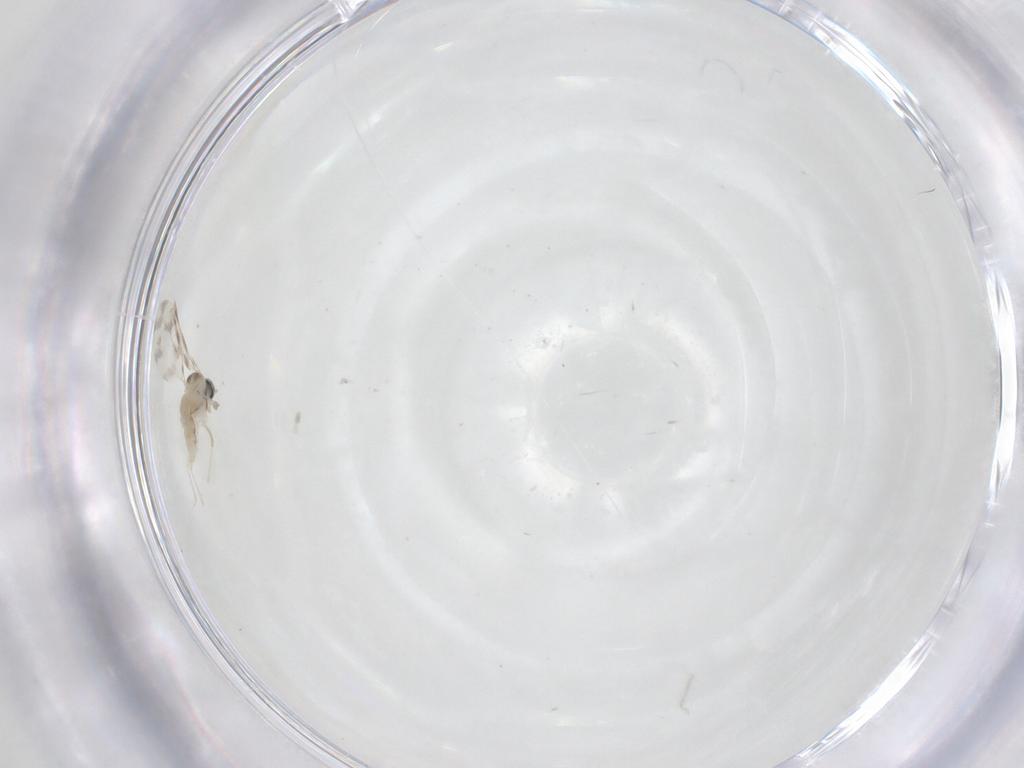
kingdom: Animalia
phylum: Arthropoda
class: Insecta
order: Diptera
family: Cecidomyiidae
